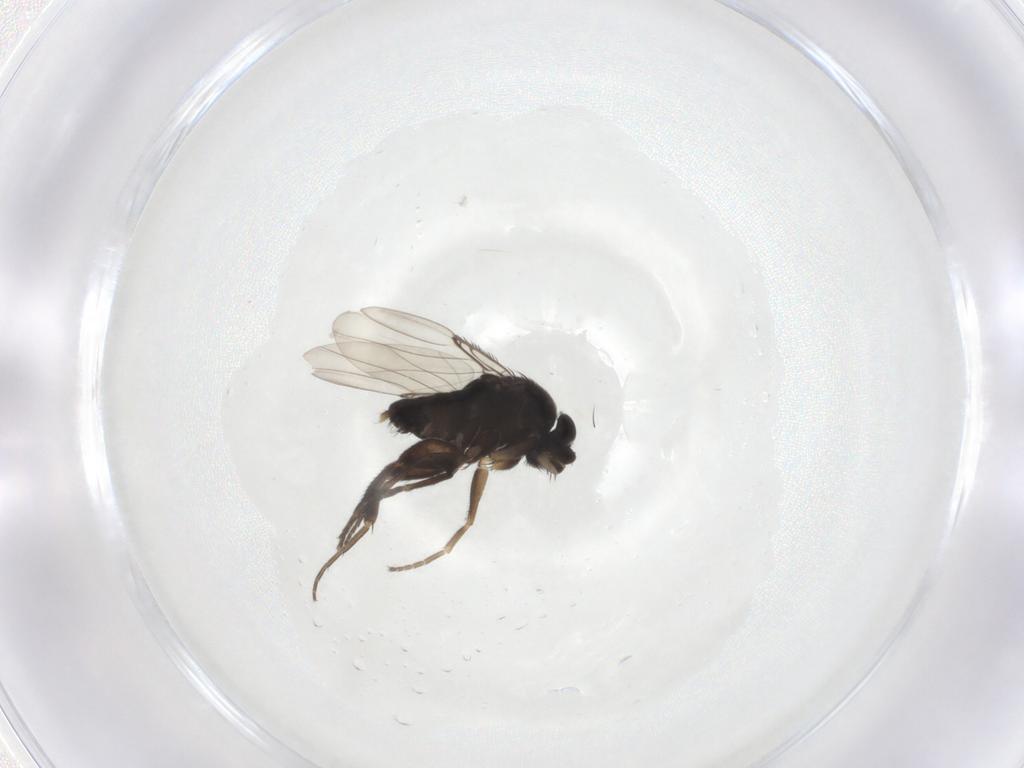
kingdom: Animalia
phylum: Arthropoda
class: Insecta
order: Diptera
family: Phoridae
